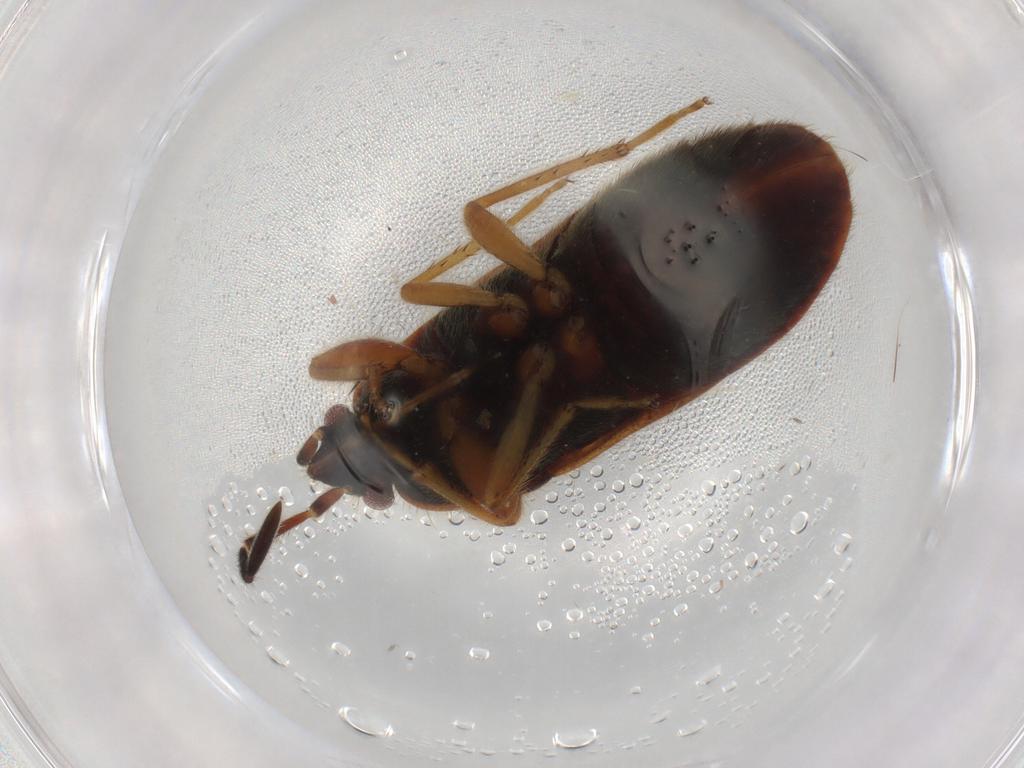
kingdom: Animalia
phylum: Arthropoda
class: Insecta
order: Hemiptera
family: Rhyparochromidae
